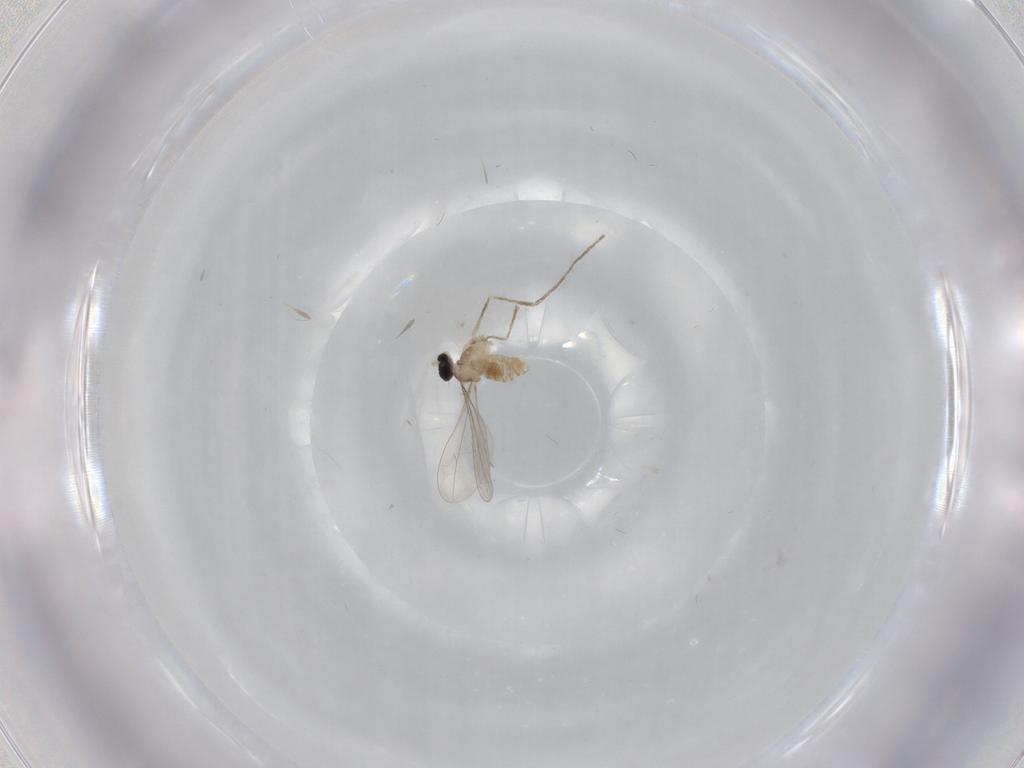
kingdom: Animalia
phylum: Arthropoda
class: Insecta
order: Diptera
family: Cecidomyiidae
